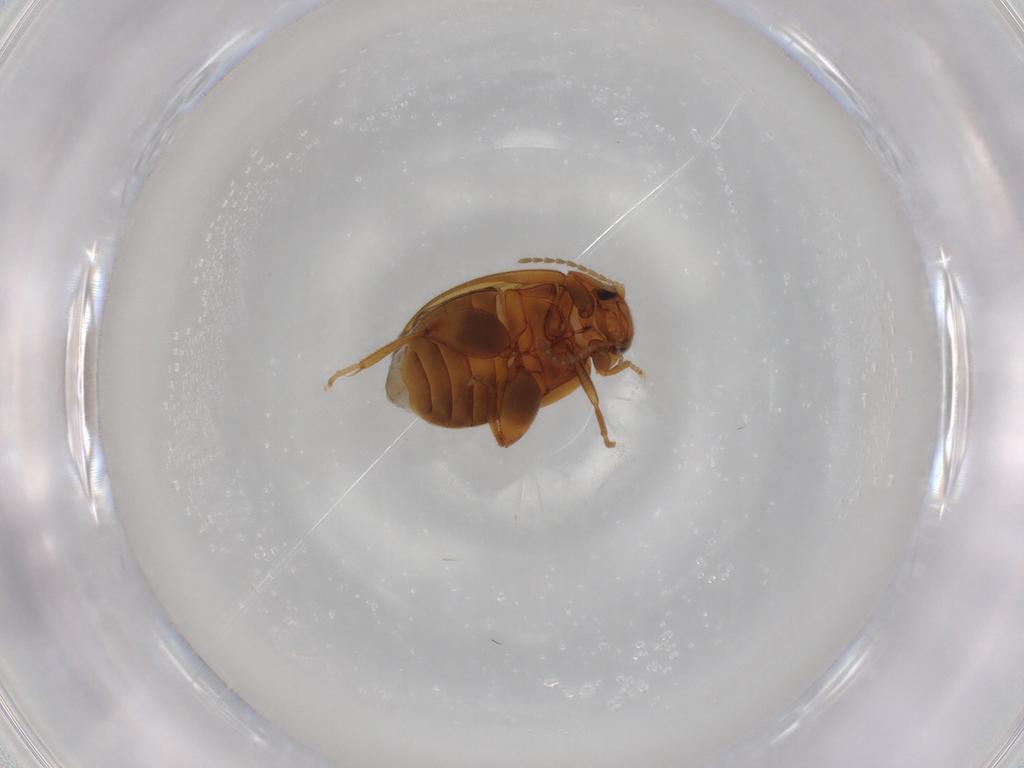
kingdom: Animalia
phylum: Arthropoda
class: Insecta
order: Coleoptera
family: Scirtidae
